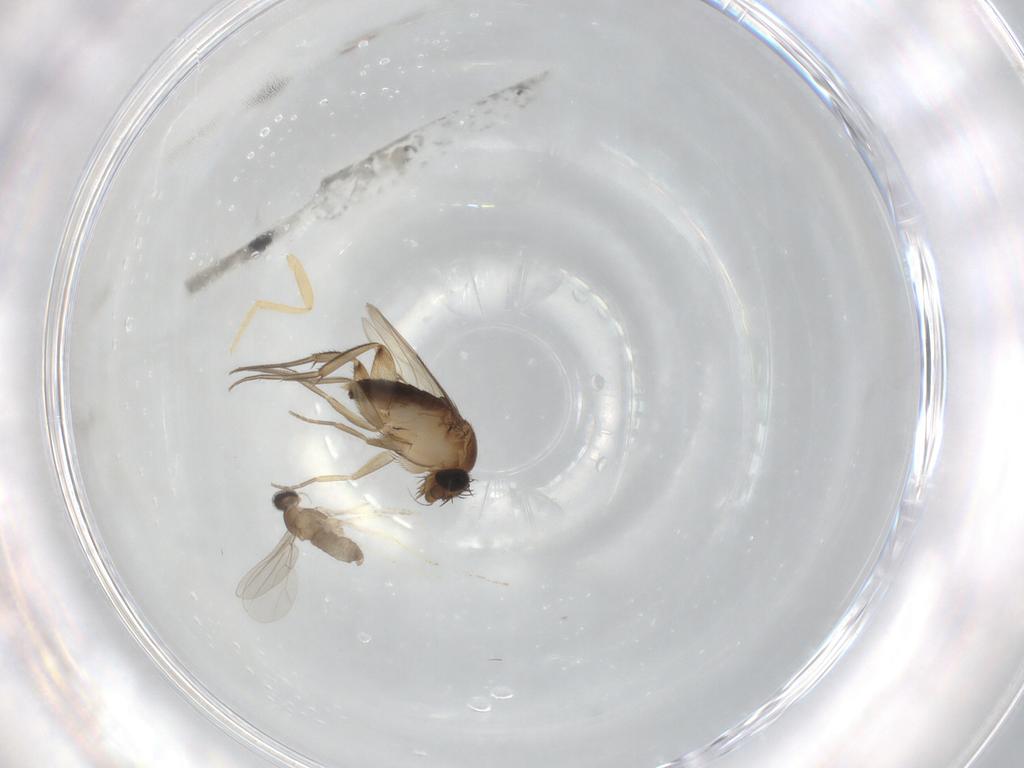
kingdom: Animalia
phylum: Arthropoda
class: Insecta
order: Diptera
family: Phoridae
